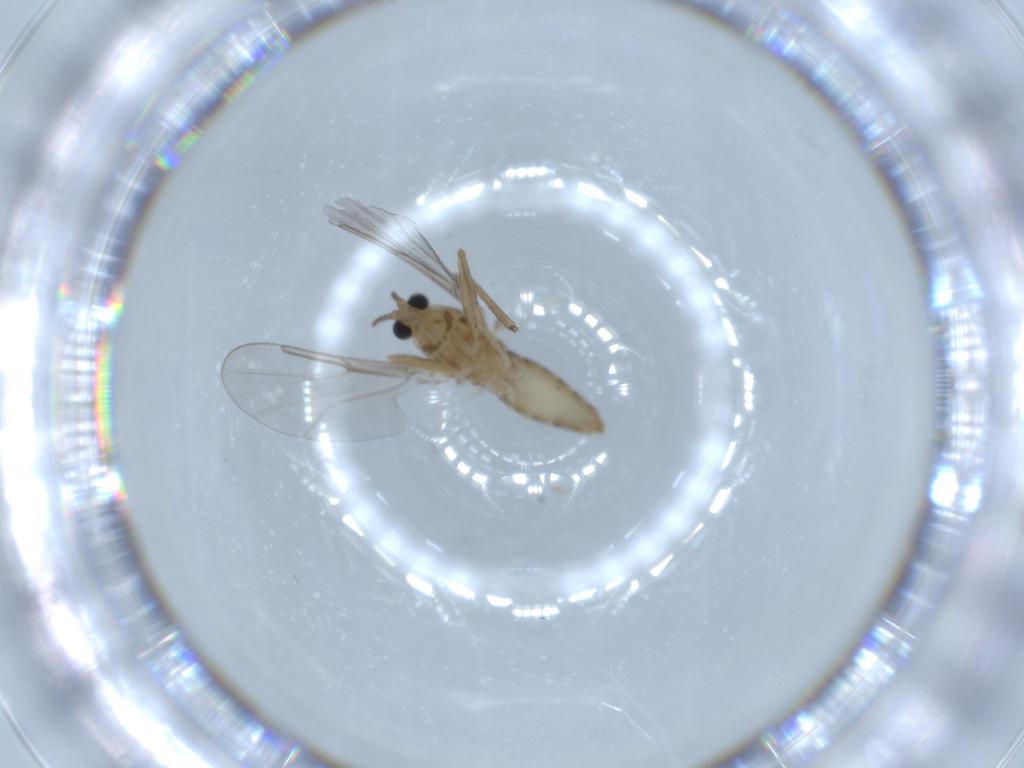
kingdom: Animalia
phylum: Arthropoda
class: Insecta
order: Diptera
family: Cecidomyiidae
